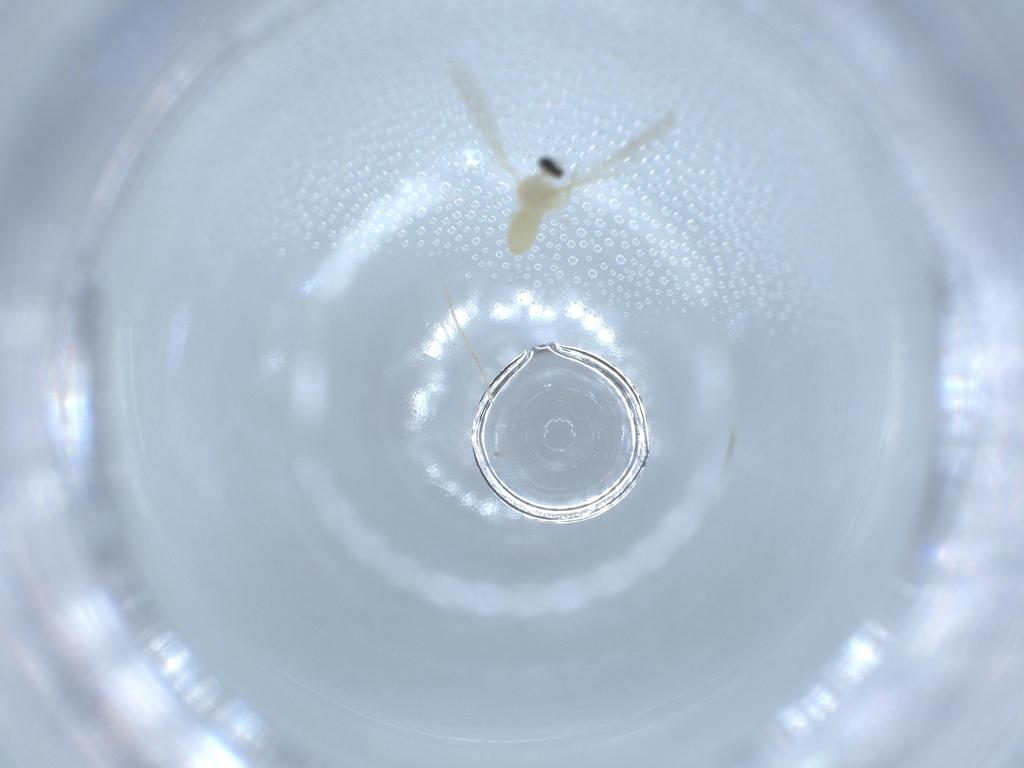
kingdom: Animalia
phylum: Arthropoda
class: Insecta
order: Diptera
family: Cecidomyiidae
